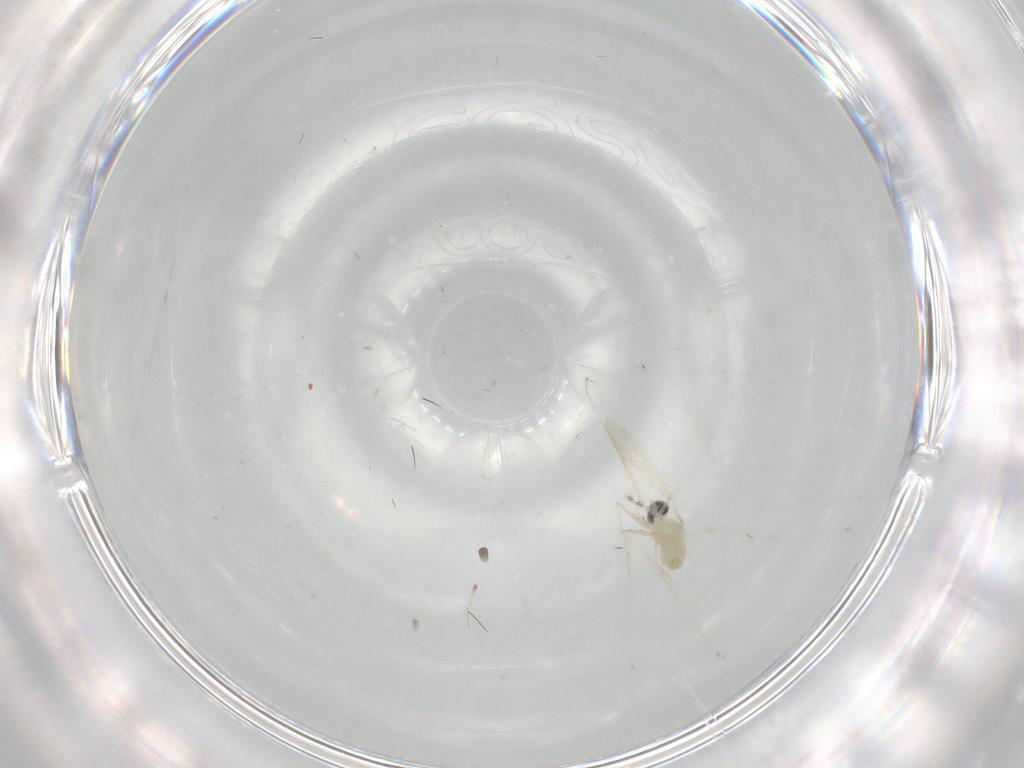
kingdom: Animalia
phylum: Arthropoda
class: Insecta
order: Diptera
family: Cecidomyiidae
